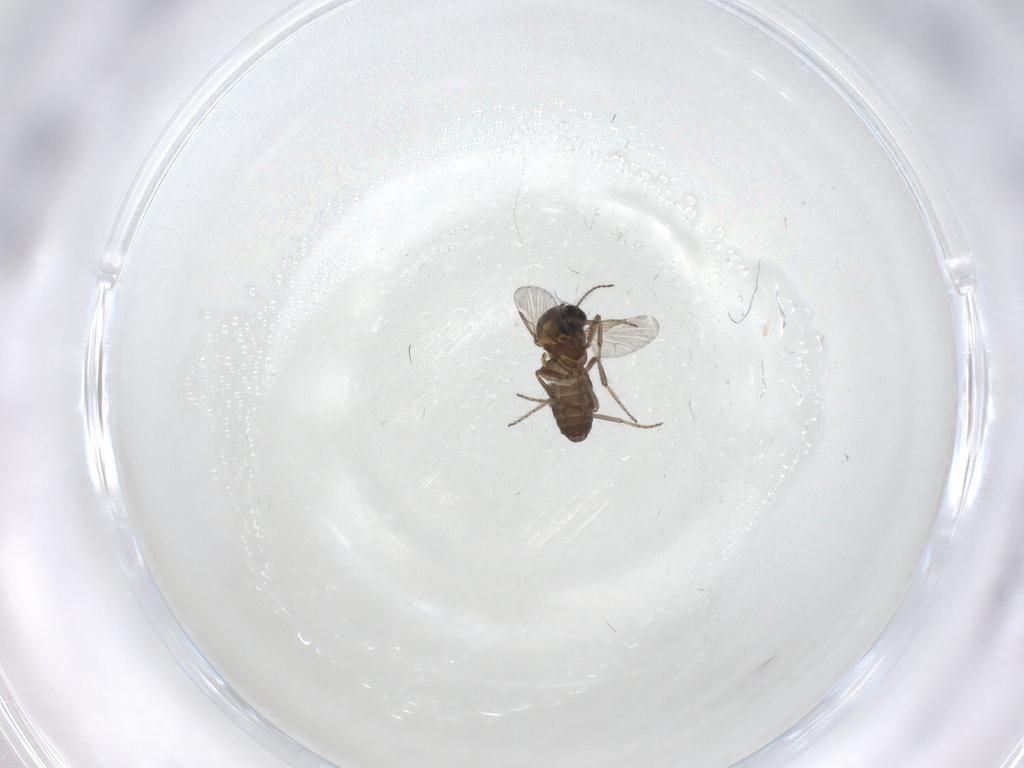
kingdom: Animalia
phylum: Arthropoda
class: Insecta
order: Diptera
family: Ceratopogonidae
